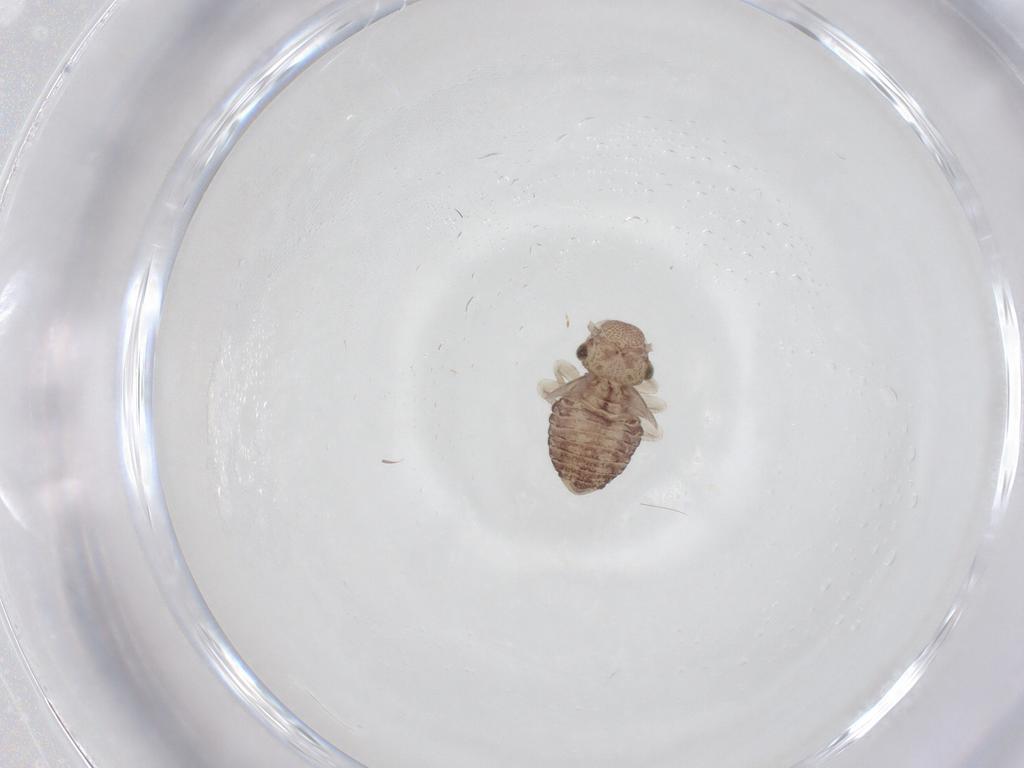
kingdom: Animalia
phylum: Arthropoda
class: Insecta
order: Psocodea
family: Myopsocidae
